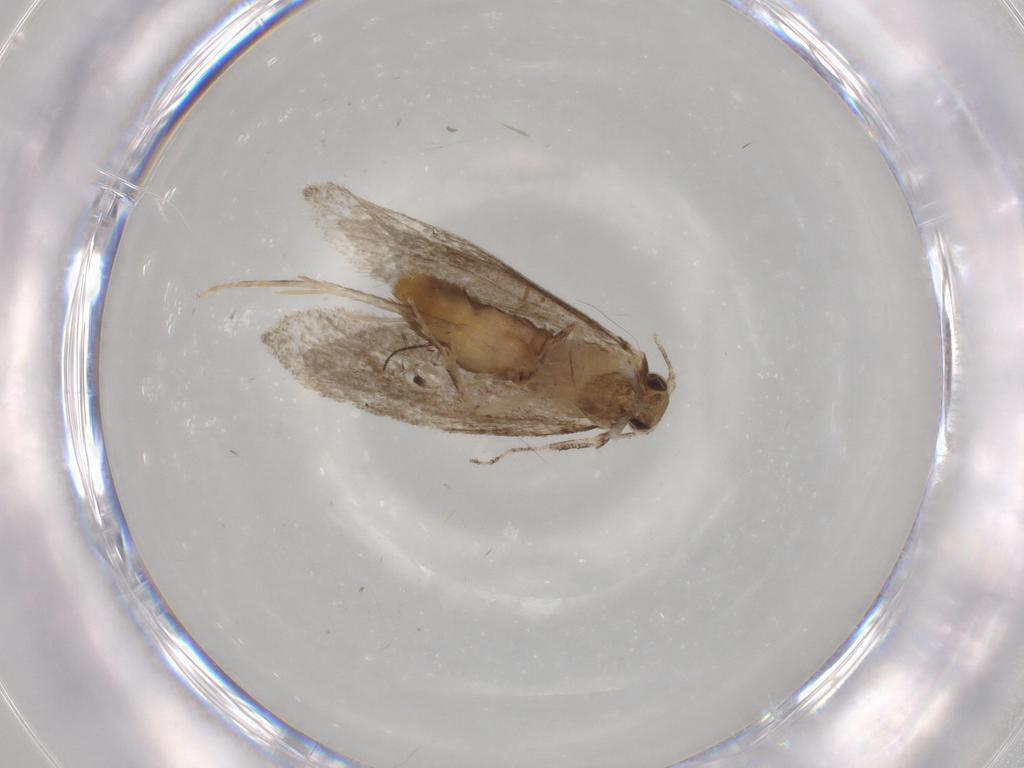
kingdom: Animalia
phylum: Arthropoda
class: Insecta
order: Lepidoptera
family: Tineidae
